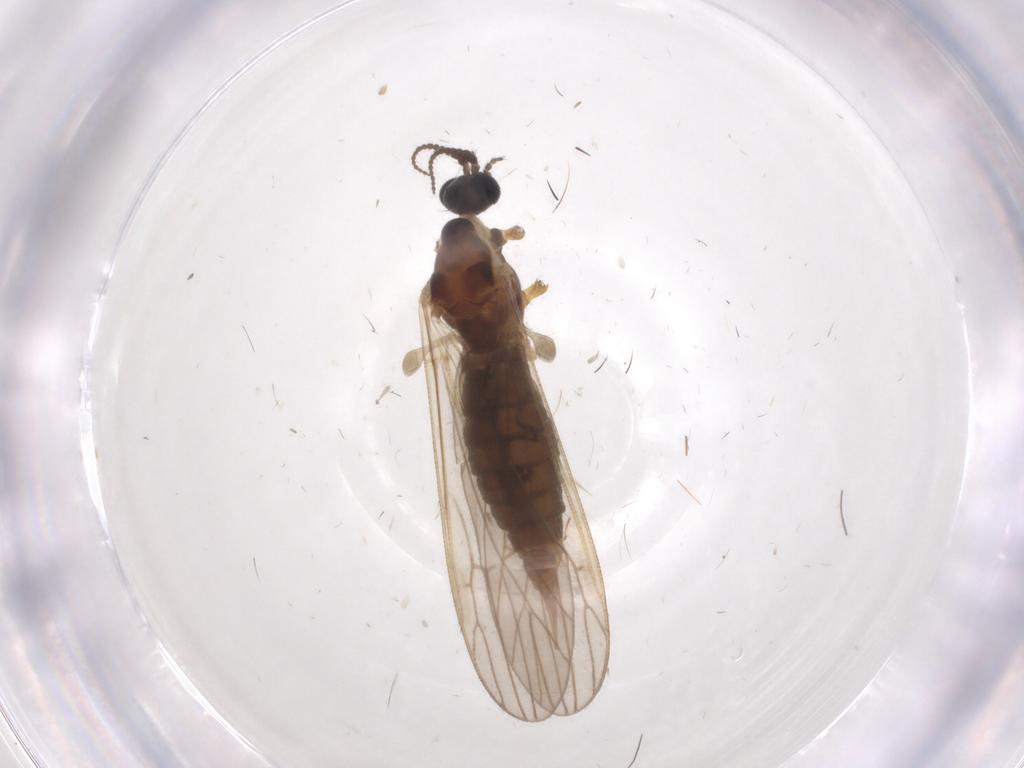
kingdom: Animalia
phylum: Arthropoda
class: Insecta
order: Diptera
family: Agromyzidae
